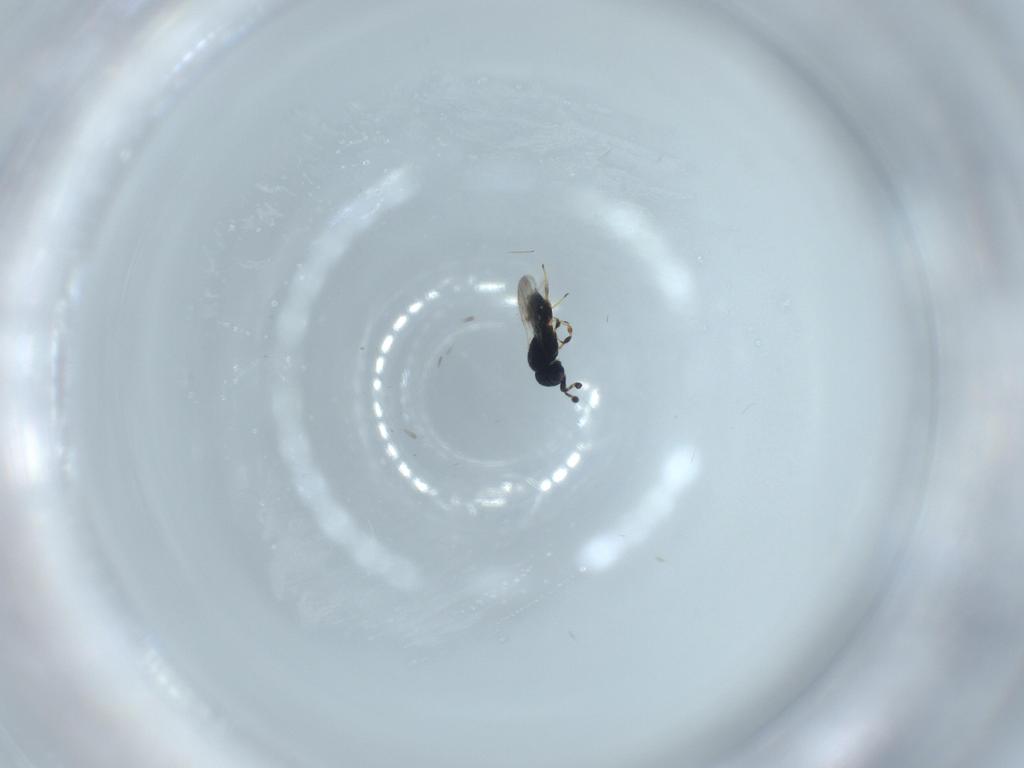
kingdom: Animalia
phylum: Arthropoda
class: Insecta
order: Hymenoptera
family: Scelionidae
